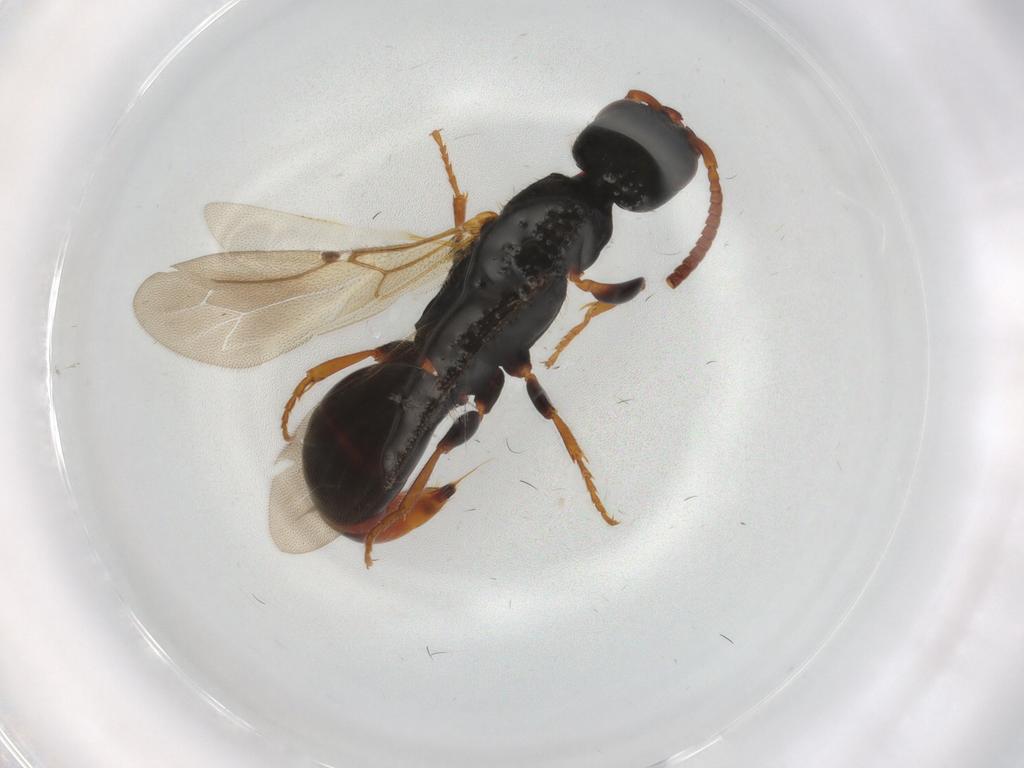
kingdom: Animalia
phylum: Arthropoda
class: Insecta
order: Hymenoptera
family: Bethylidae
